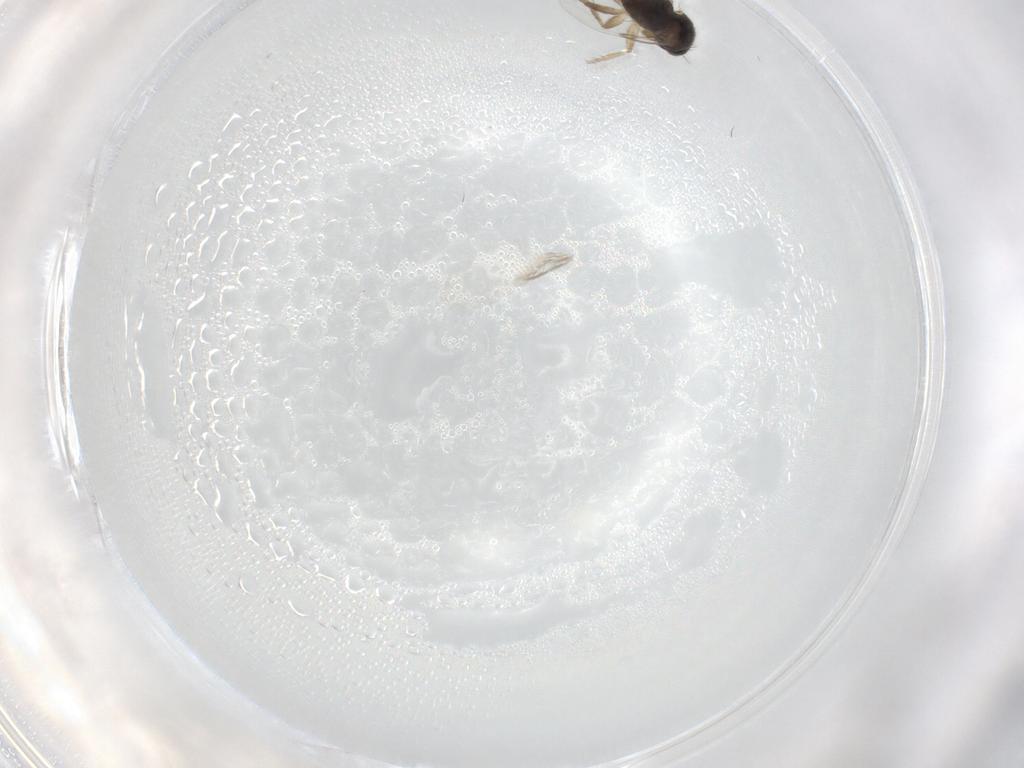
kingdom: Animalia
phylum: Arthropoda
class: Insecta
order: Diptera
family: Phoridae
